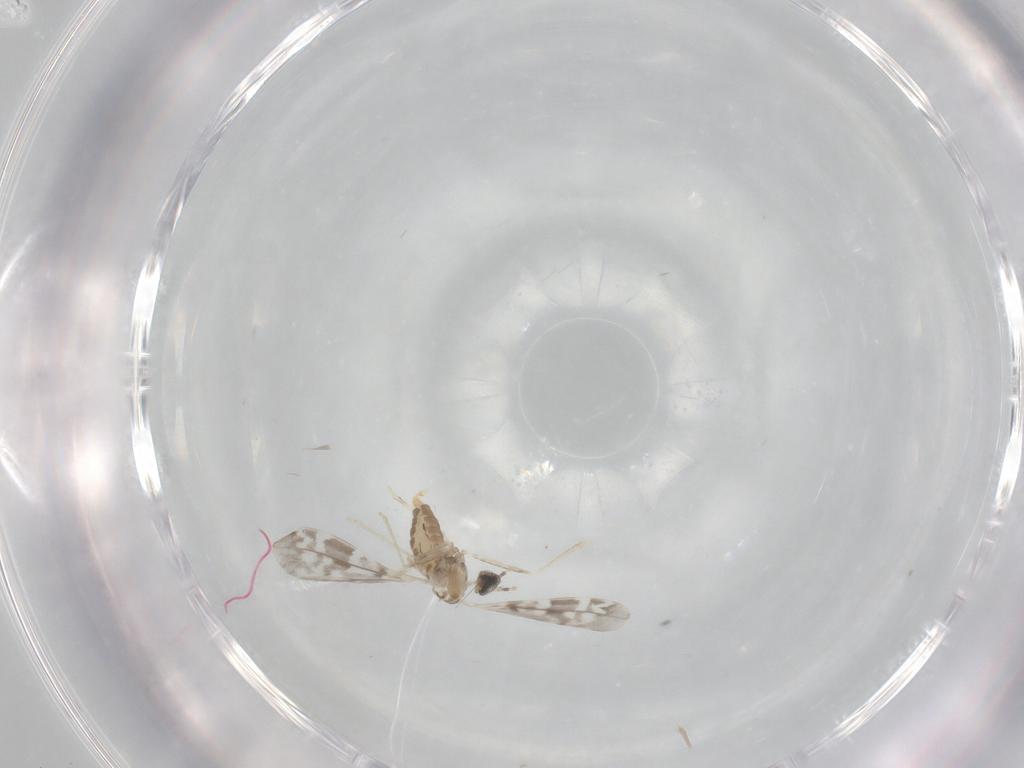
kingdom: Animalia
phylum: Arthropoda
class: Insecta
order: Diptera
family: Cecidomyiidae
